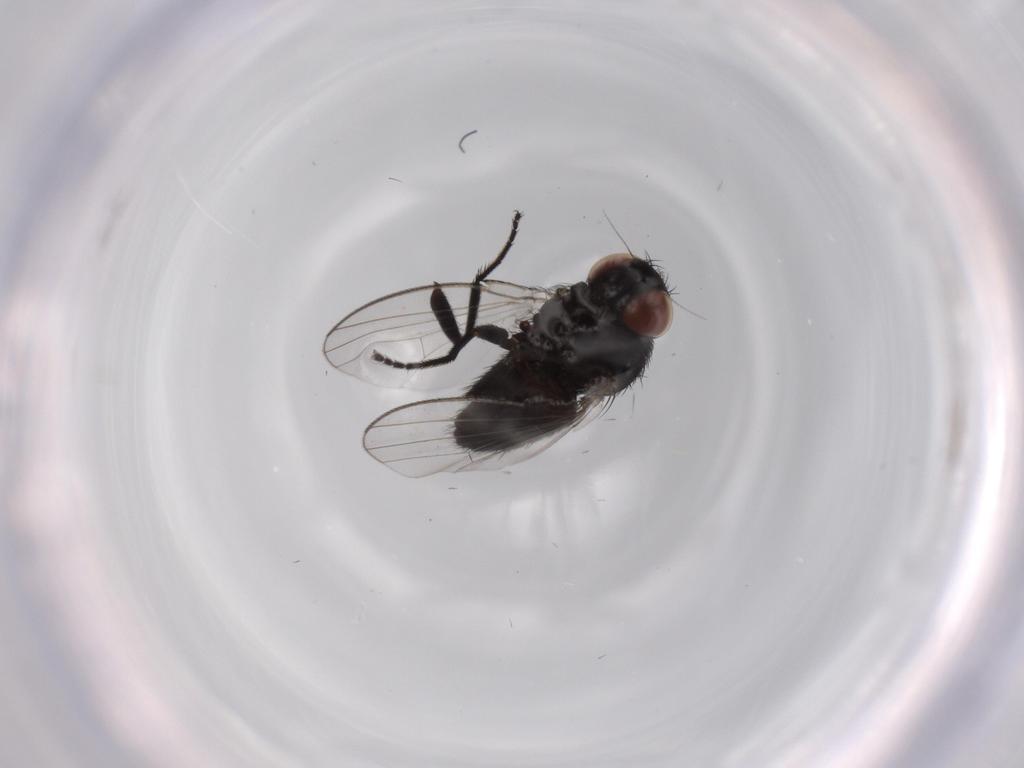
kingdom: Animalia
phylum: Arthropoda
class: Insecta
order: Diptera
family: Milichiidae
